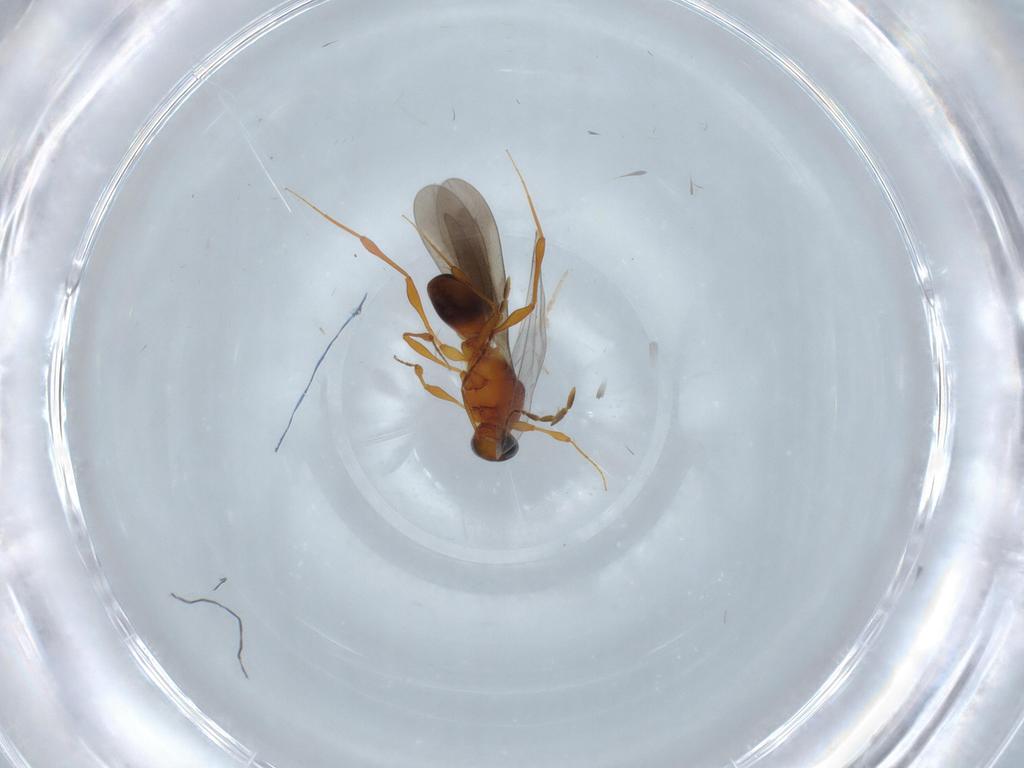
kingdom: Animalia
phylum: Arthropoda
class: Insecta
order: Hymenoptera
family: Platygastridae
